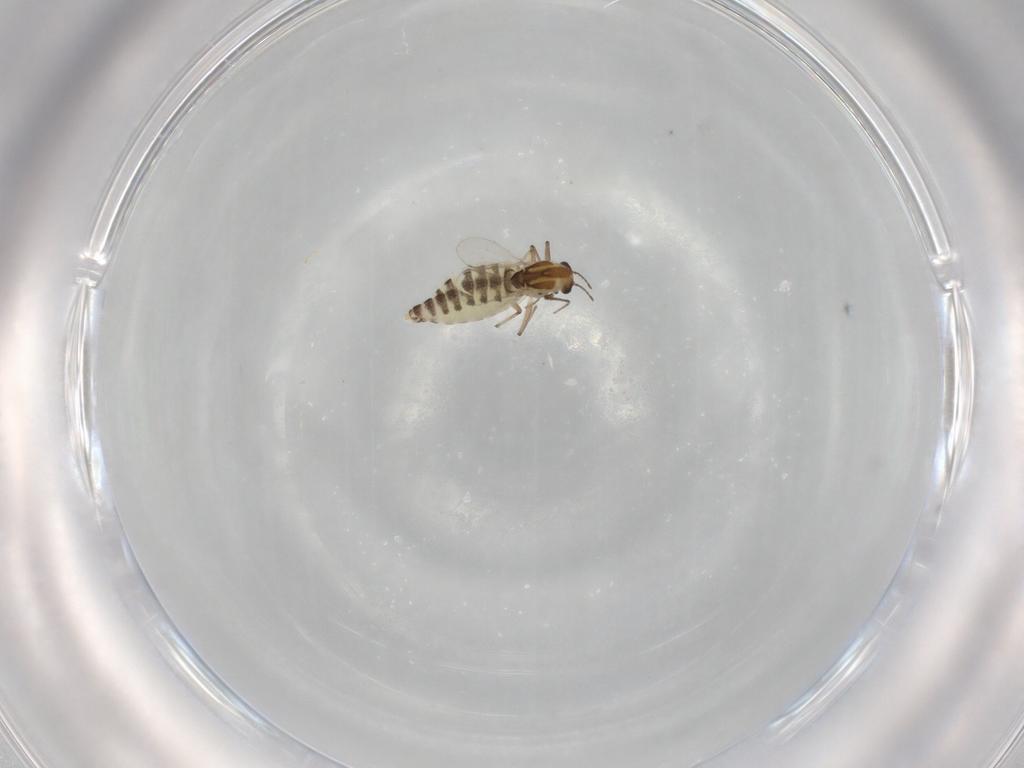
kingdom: Animalia
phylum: Arthropoda
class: Insecta
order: Diptera
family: Chironomidae
